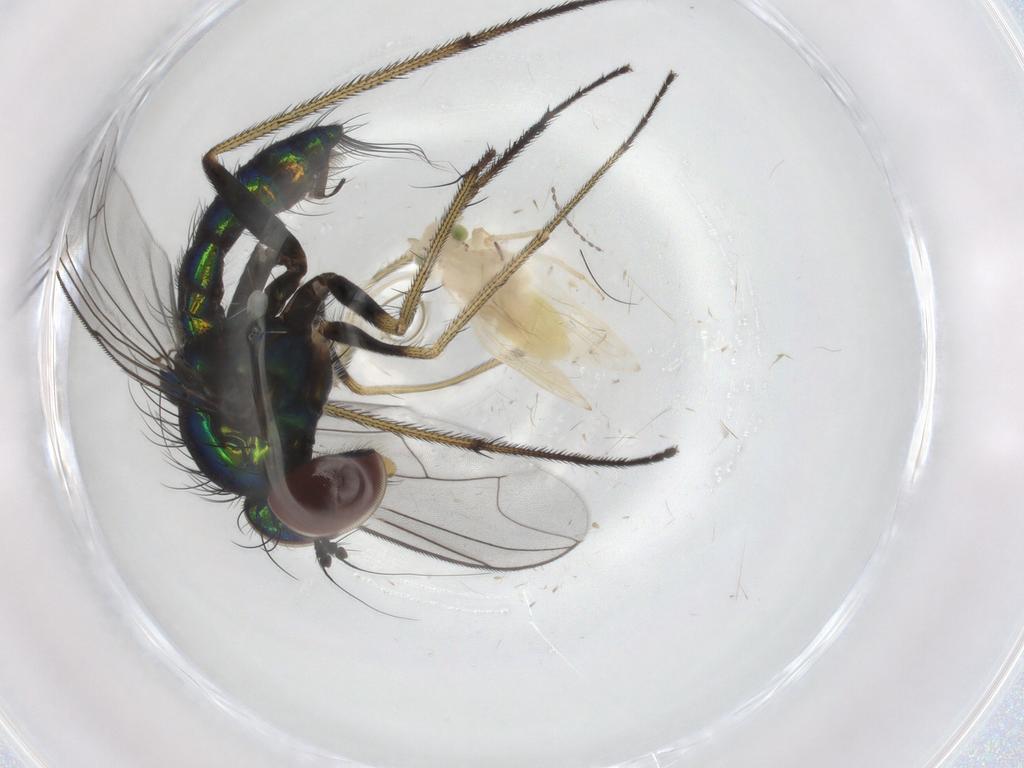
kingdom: Animalia
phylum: Arthropoda
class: Insecta
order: Diptera
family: Dolichopodidae
